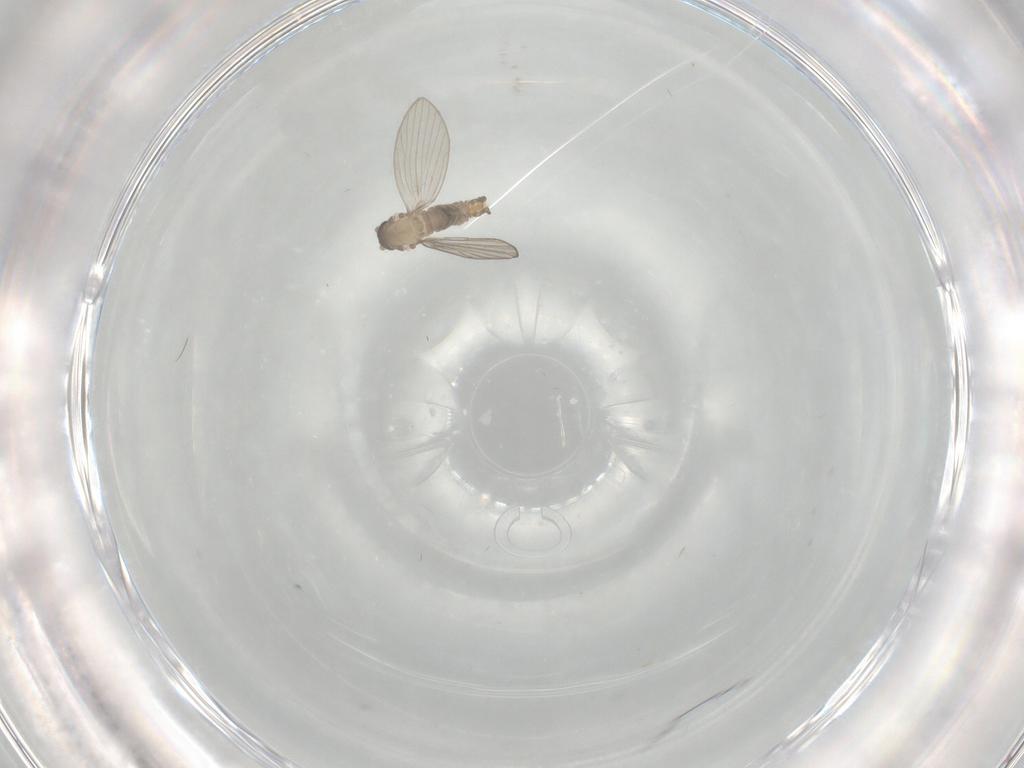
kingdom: Animalia
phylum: Arthropoda
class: Insecta
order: Diptera
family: Psychodidae
